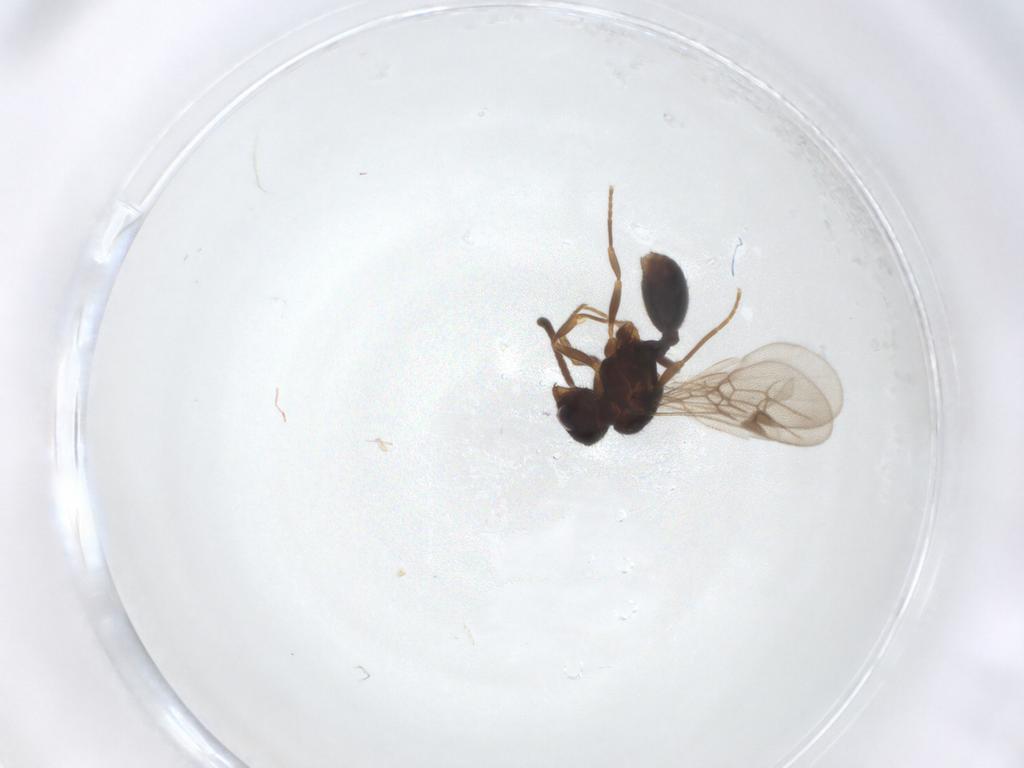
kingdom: Animalia
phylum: Arthropoda
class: Insecta
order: Hymenoptera
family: Formicidae
